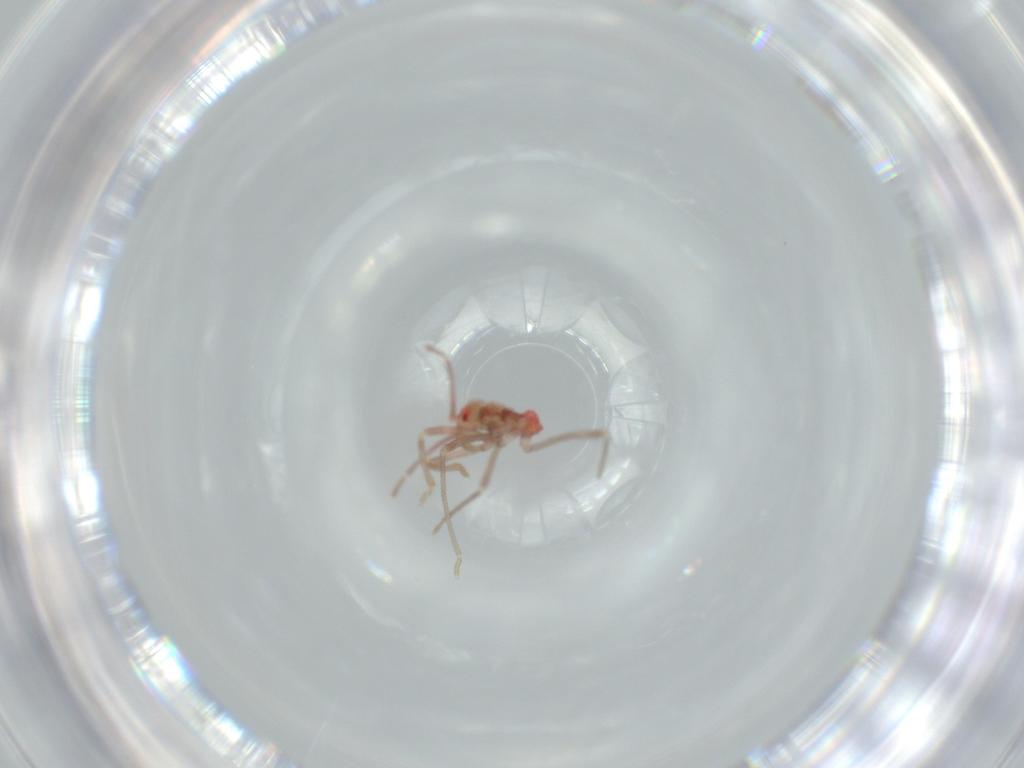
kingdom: Animalia
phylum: Arthropoda
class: Insecta
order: Hemiptera
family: Reduviidae
